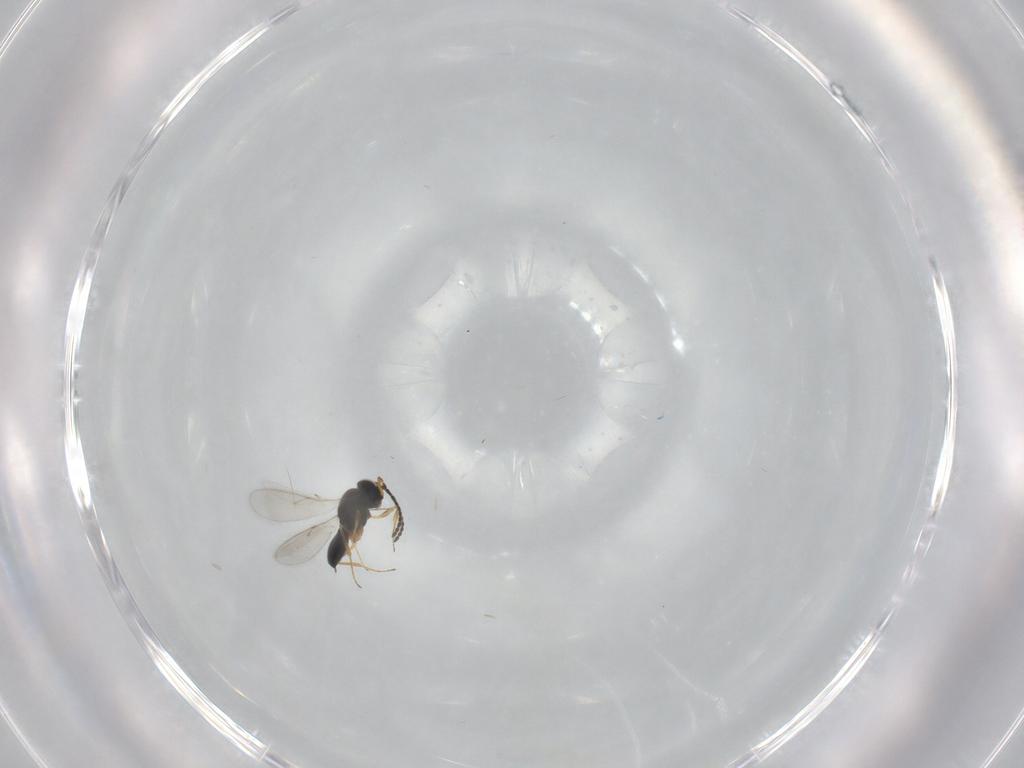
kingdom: Animalia
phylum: Arthropoda
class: Insecta
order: Hymenoptera
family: Scelionidae
